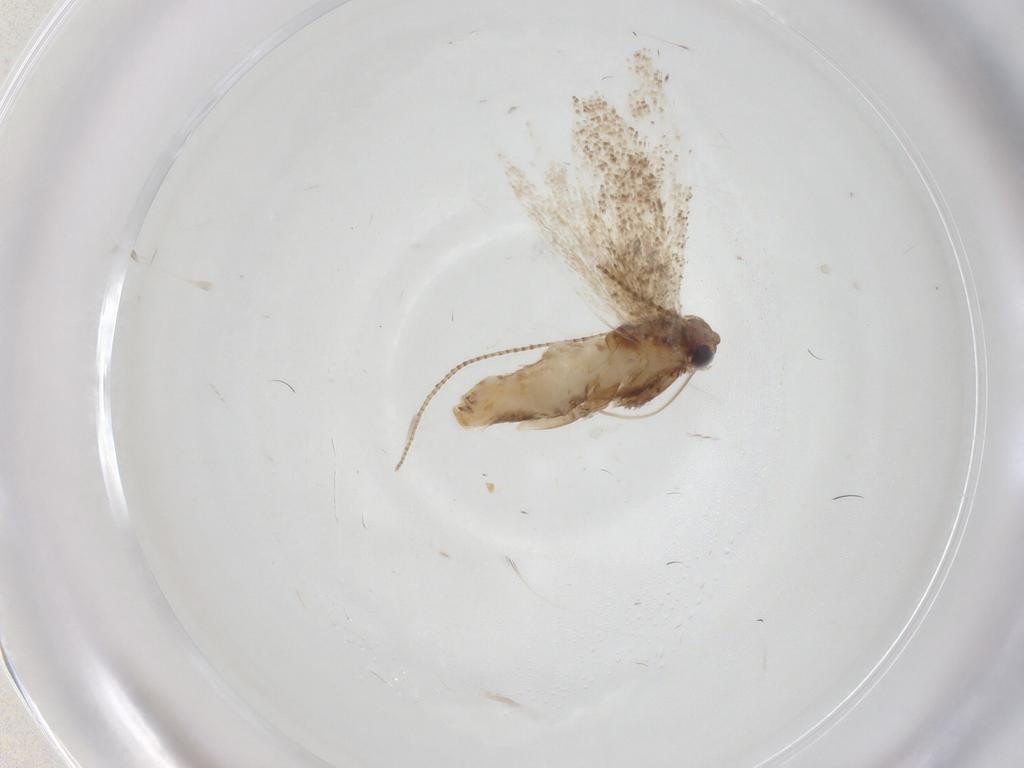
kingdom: Animalia
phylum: Arthropoda
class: Insecta
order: Lepidoptera
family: Gracillariidae
